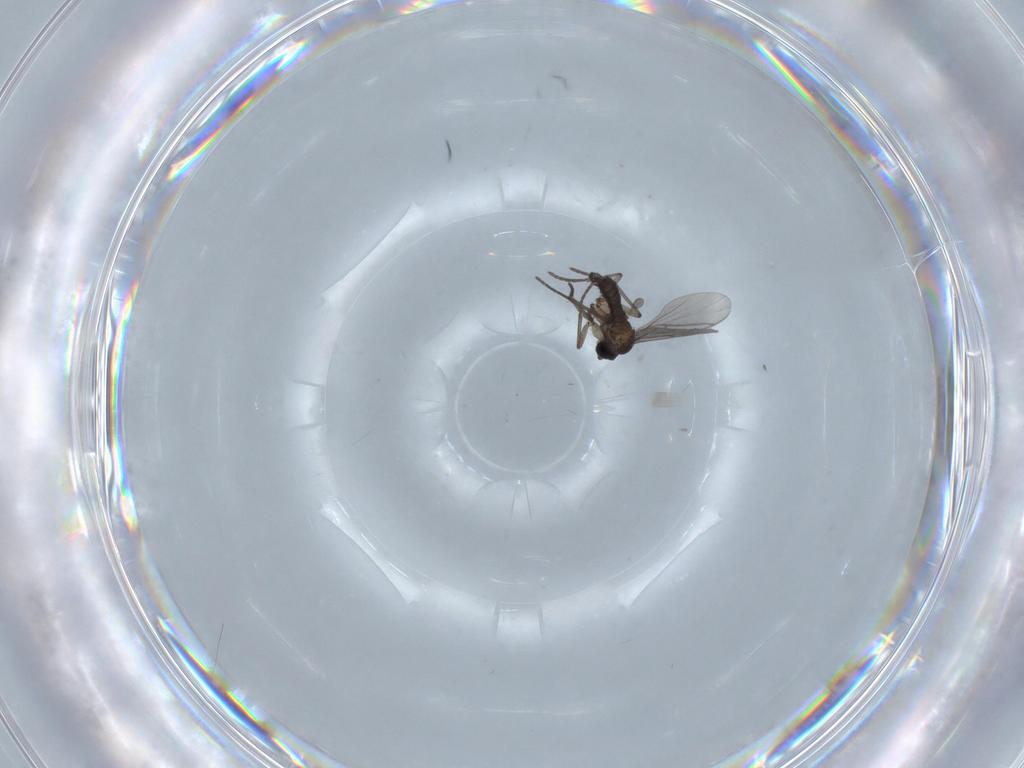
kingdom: Animalia
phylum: Arthropoda
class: Insecta
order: Diptera
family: Cecidomyiidae
